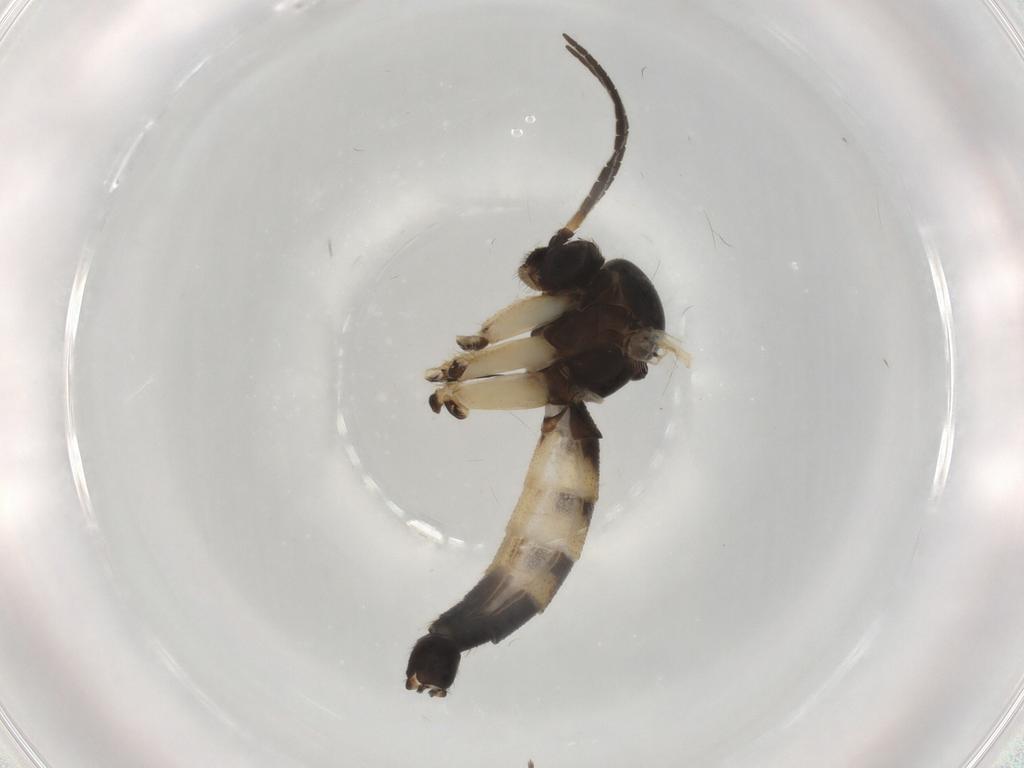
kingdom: Animalia
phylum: Arthropoda
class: Insecta
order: Diptera
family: Mycetophilidae
